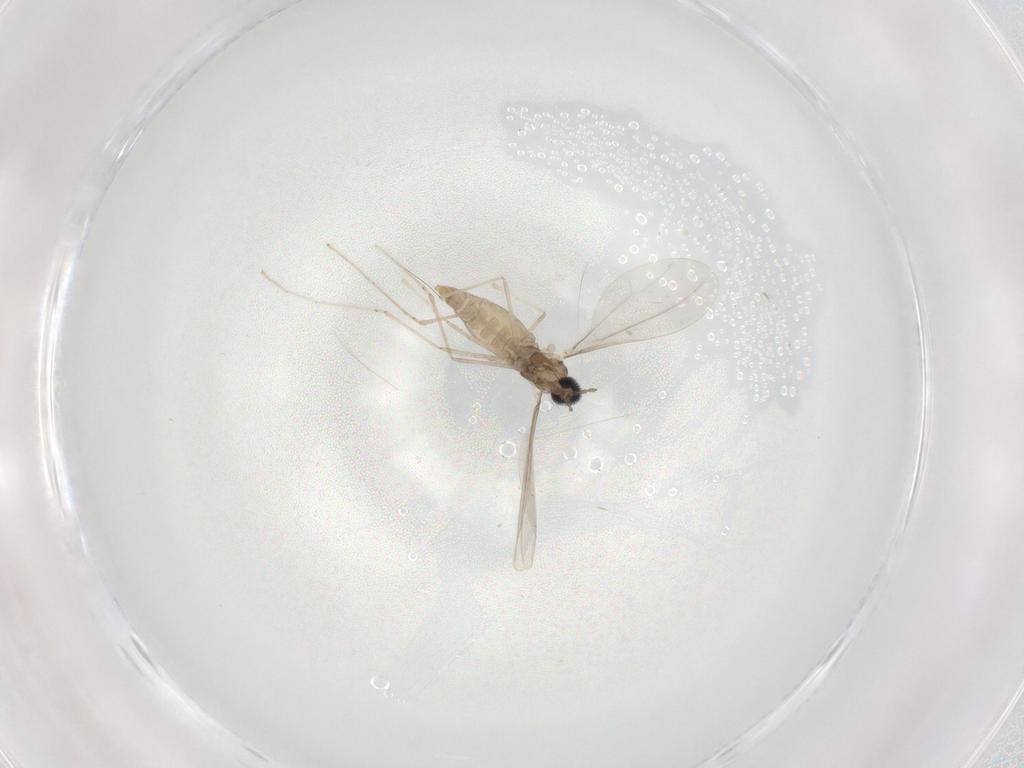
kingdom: Animalia
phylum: Arthropoda
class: Insecta
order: Diptera
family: Cecidomyiidae
